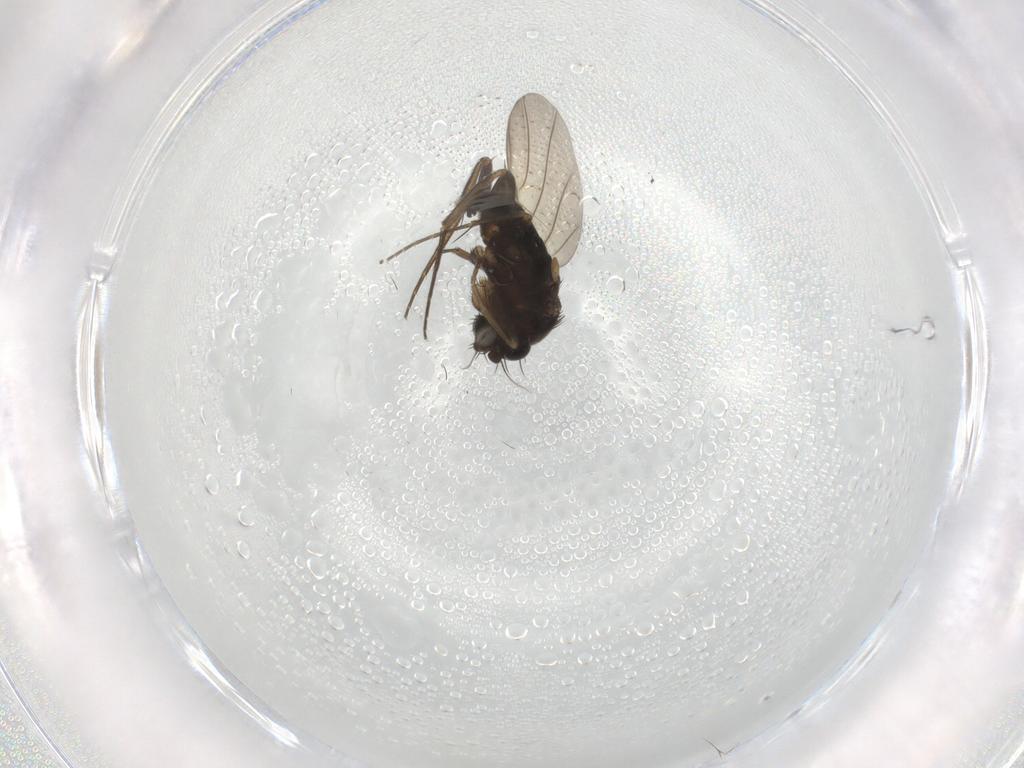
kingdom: Animalia
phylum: Arthropoda
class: Insecta
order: Diptera
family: Phoridae
